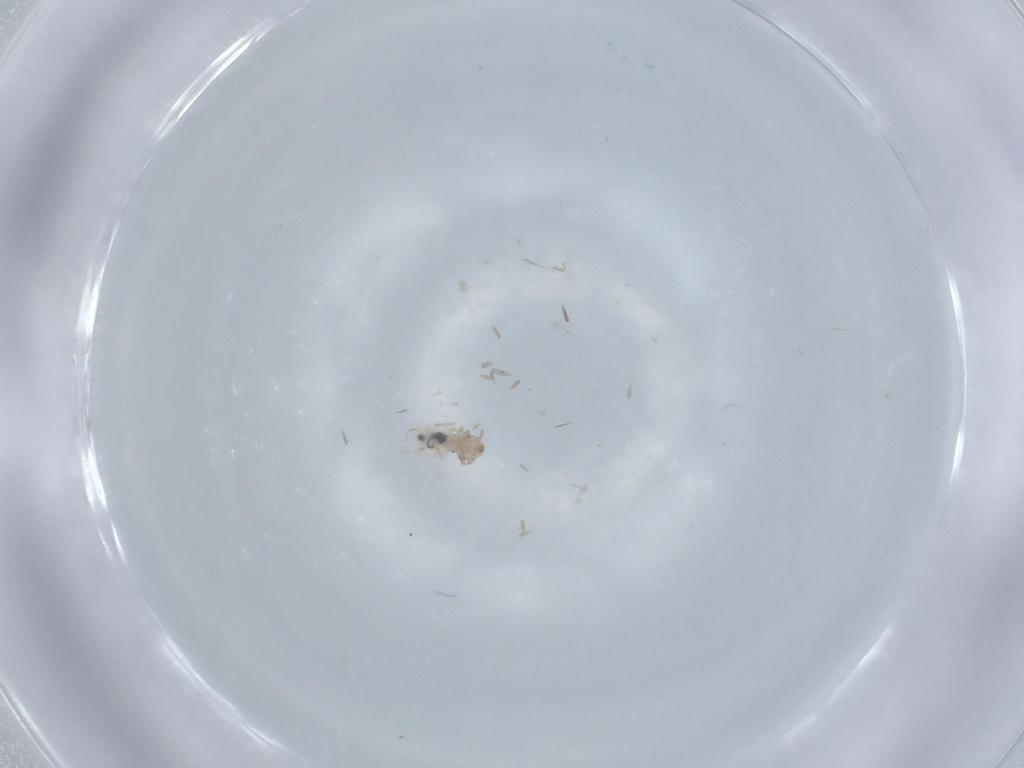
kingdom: Animalia
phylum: Arthropoda
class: Insecta
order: Psocodea
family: Lepidopsocidae
